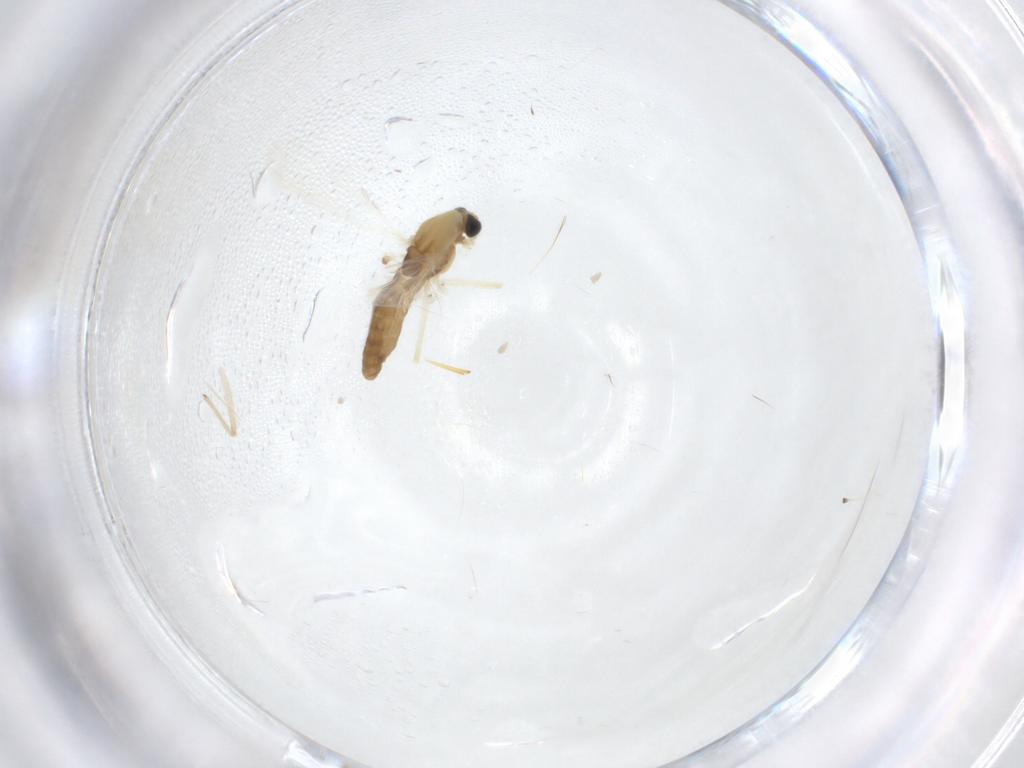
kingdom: Animalia
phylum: Arthropoda
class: Insecta
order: Diptera
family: Chironomidae
